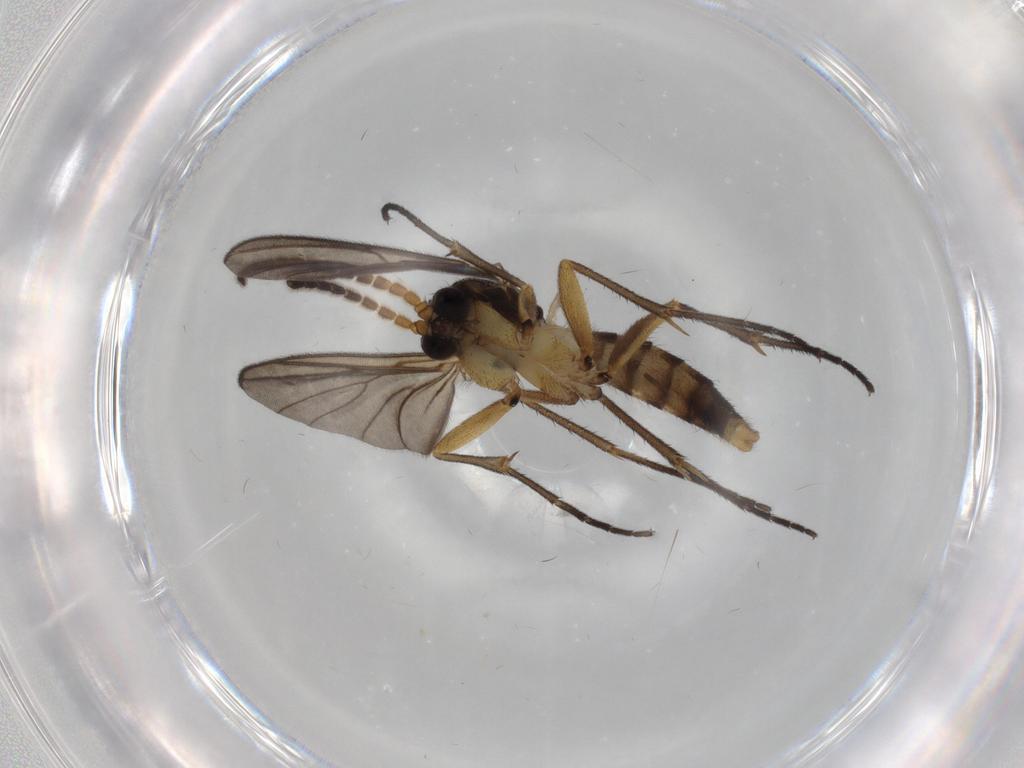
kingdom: Animalia
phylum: Arthropoda
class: Insecta
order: Diptera
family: Mycetophilidae
